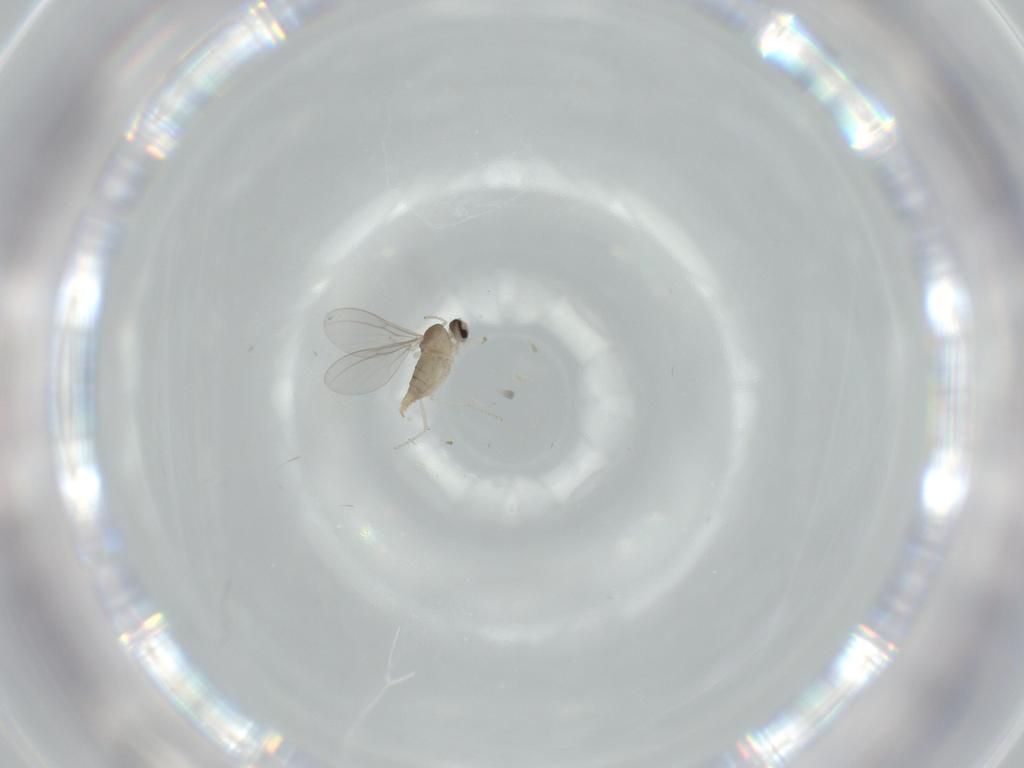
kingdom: Animalia
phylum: Arthropoda
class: Insecta
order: Diptera
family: Cecidomyiidae
